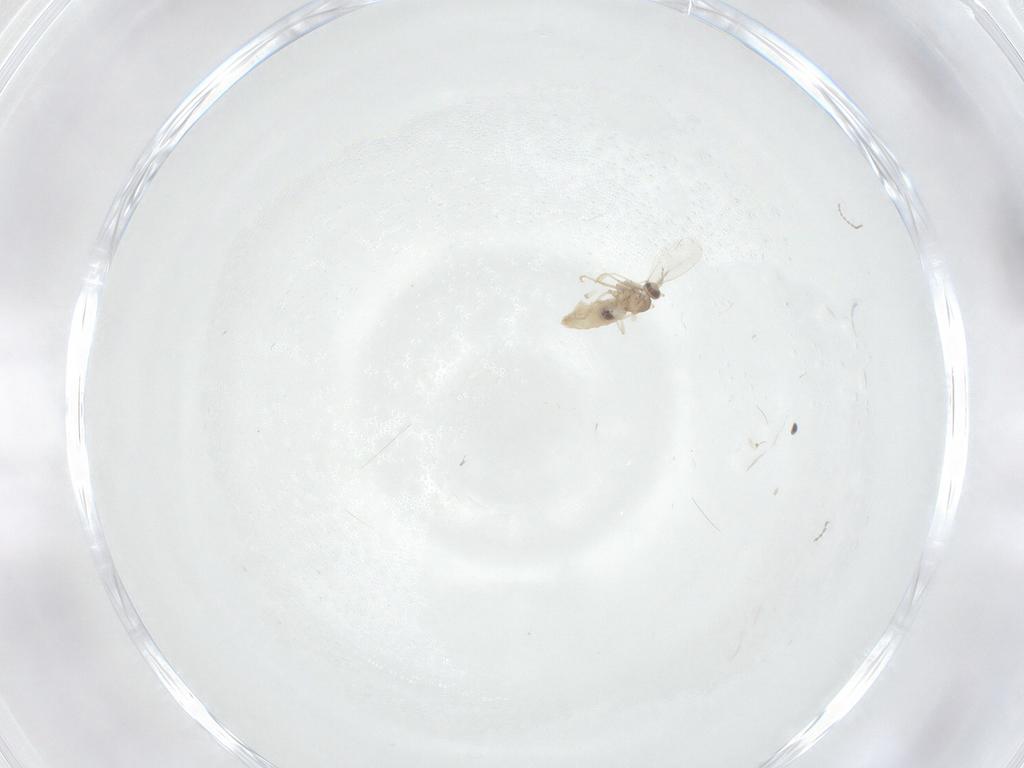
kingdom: Animalia
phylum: Arthropoda
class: Insecta
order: Diptera
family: Cecidomyiidae
